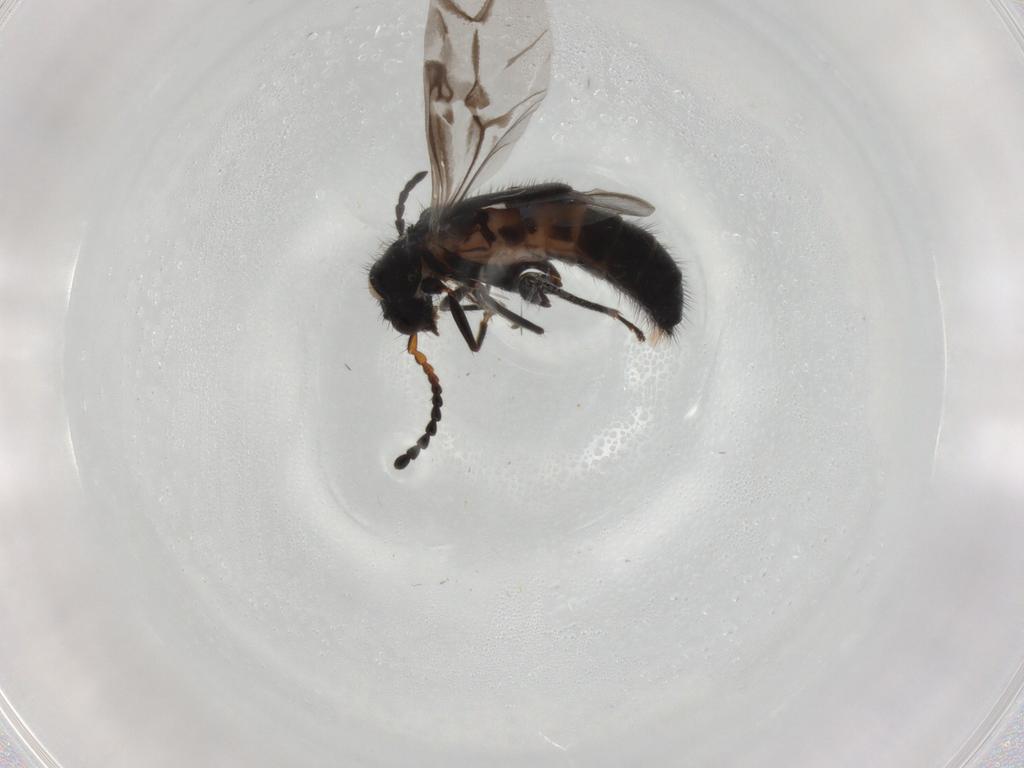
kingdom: Animalia
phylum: Arthropoda
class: Insecta
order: Coleoptera
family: Melyridae
